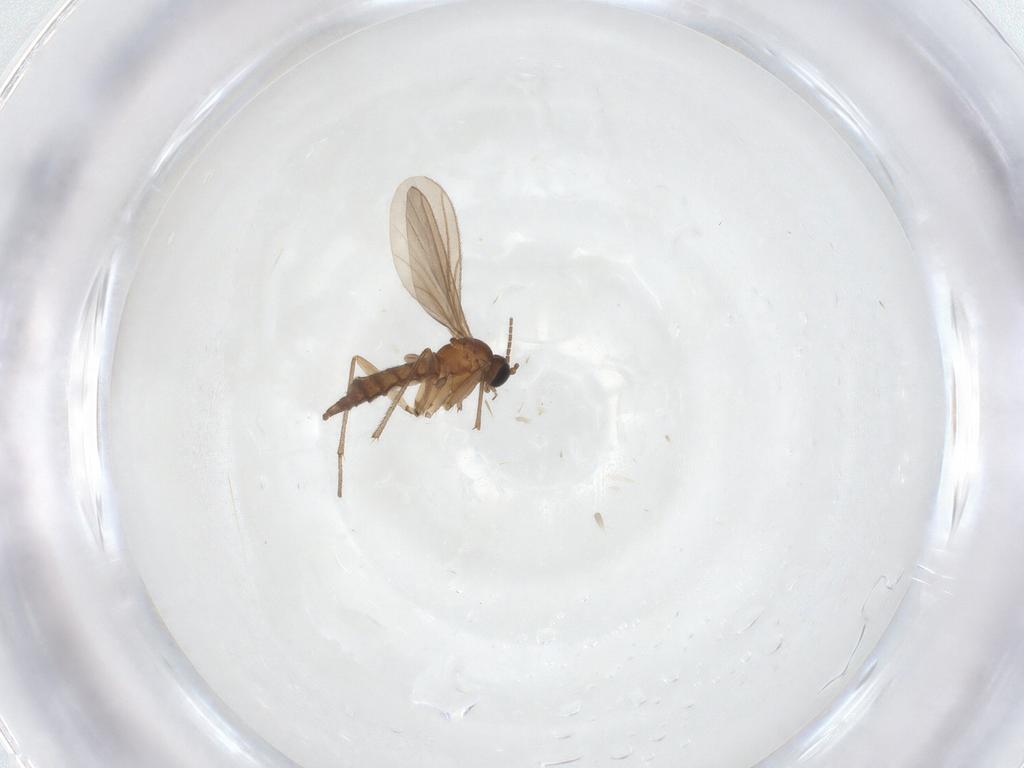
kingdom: Animalia
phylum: Arthropoda
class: Insecta
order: Diptera
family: Sciaridae
